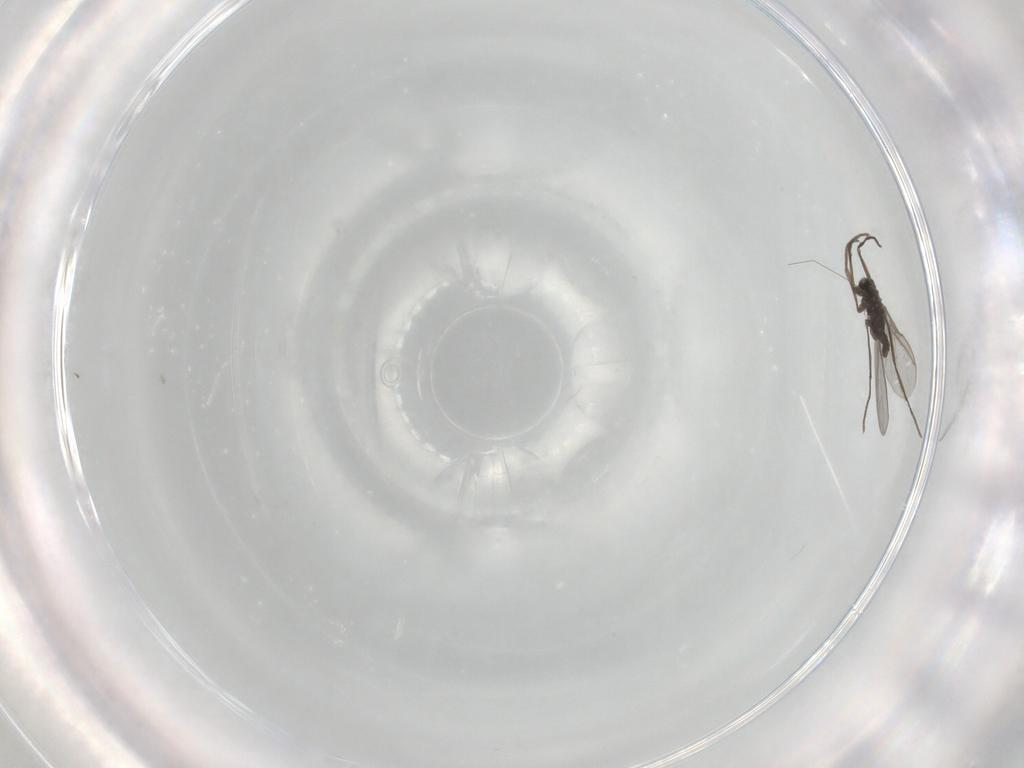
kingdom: Animalia
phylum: Arthropoda
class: Insecta
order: Diptera
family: Sciaridae
